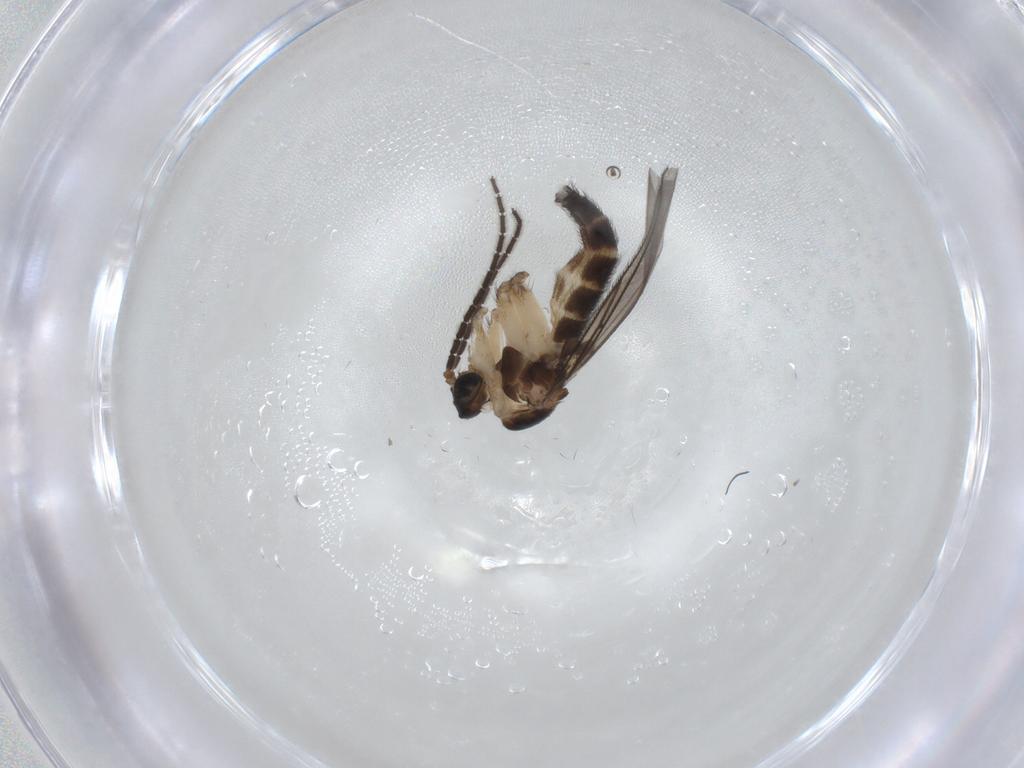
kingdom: Animalia
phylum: Arthropoda
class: Insecta
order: Diptera
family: Sciaridae
